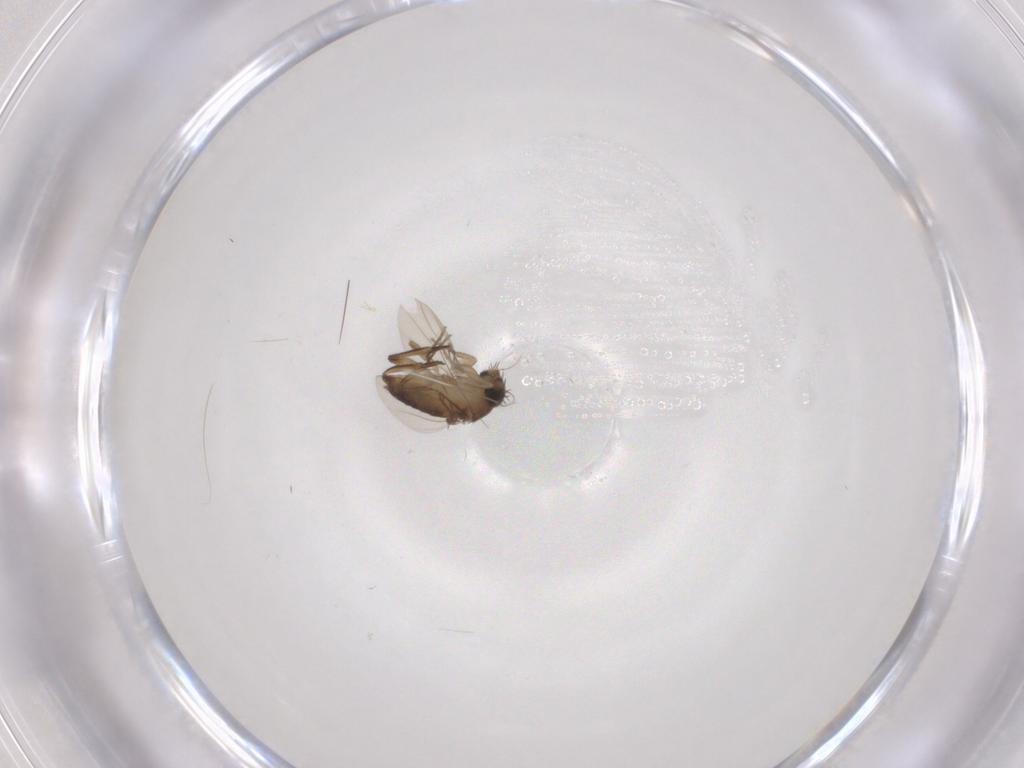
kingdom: Animalia
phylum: Arthropoda
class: Insecta
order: Diptera
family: Phoridae
